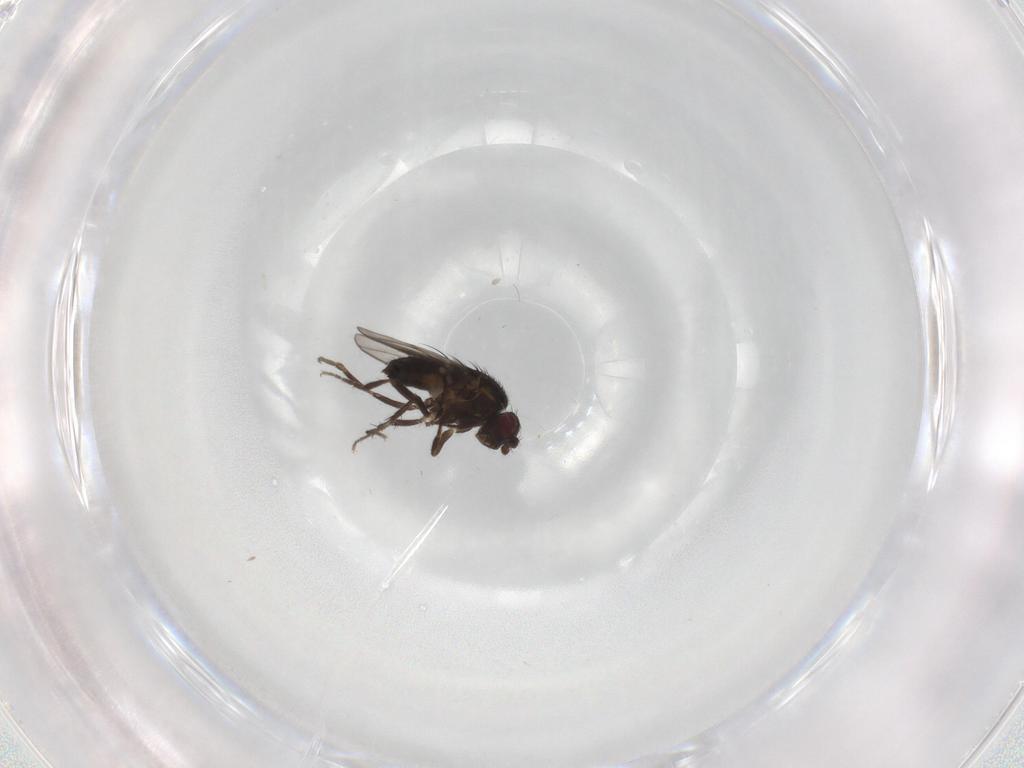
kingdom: Animalia
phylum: Arthropoda
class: Insecta
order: Diptera
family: Sphaeroceridae
